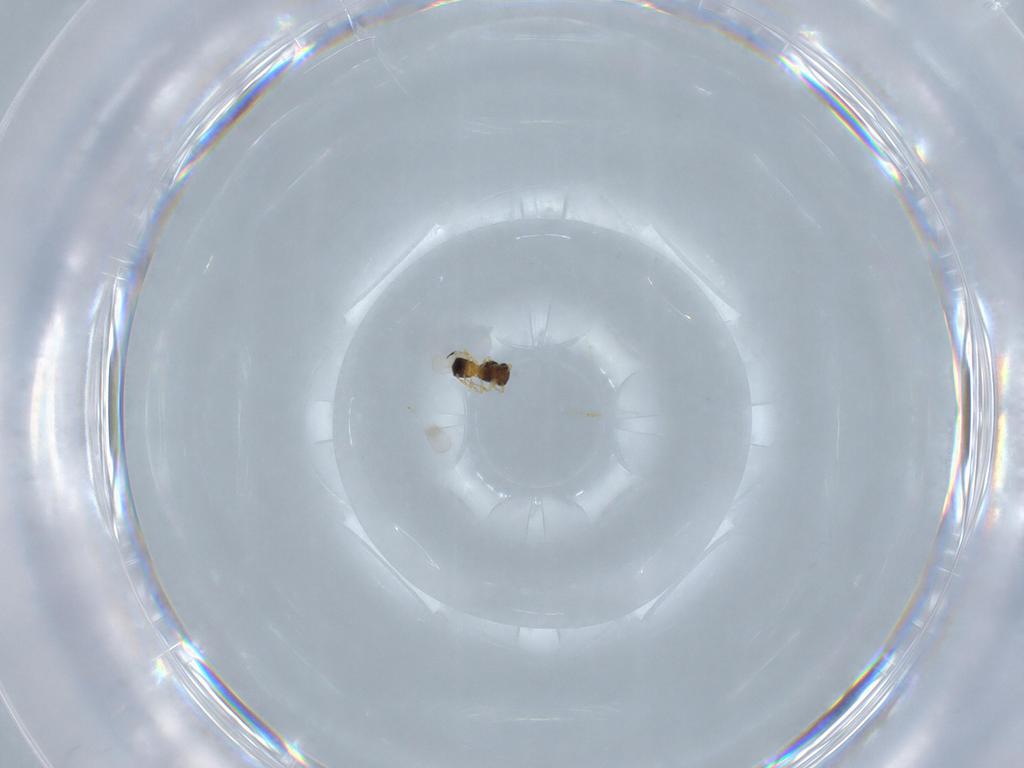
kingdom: Animalia
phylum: Arthropoda
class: Insecta
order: Hymenoptera
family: Platygastridae
